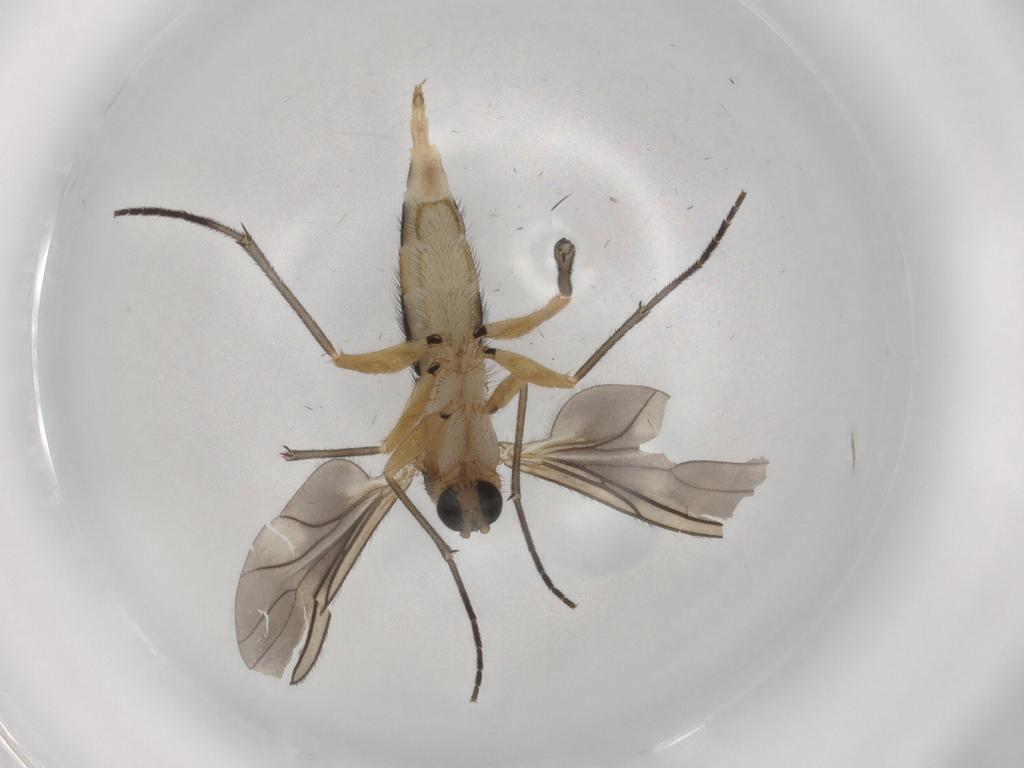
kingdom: Animalia
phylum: Arthropoda
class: Insecta
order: Diptera
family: Sciaridae
